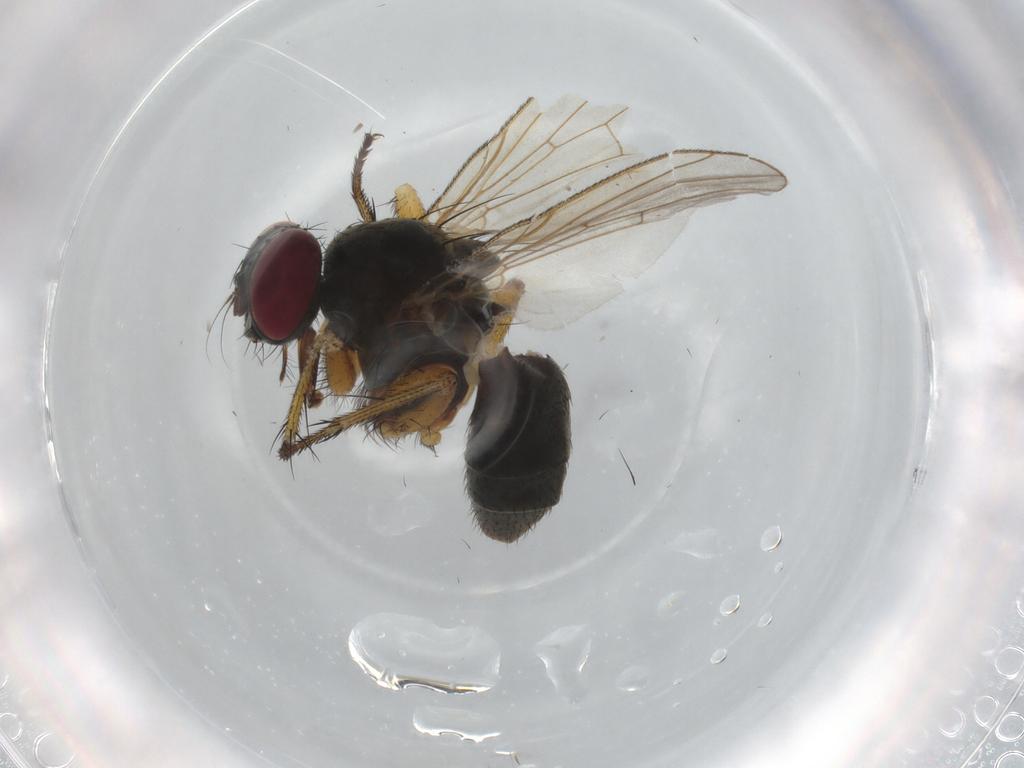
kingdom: Animalia
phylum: Arthropoda
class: Insecta
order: Diptera
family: Muscidae
